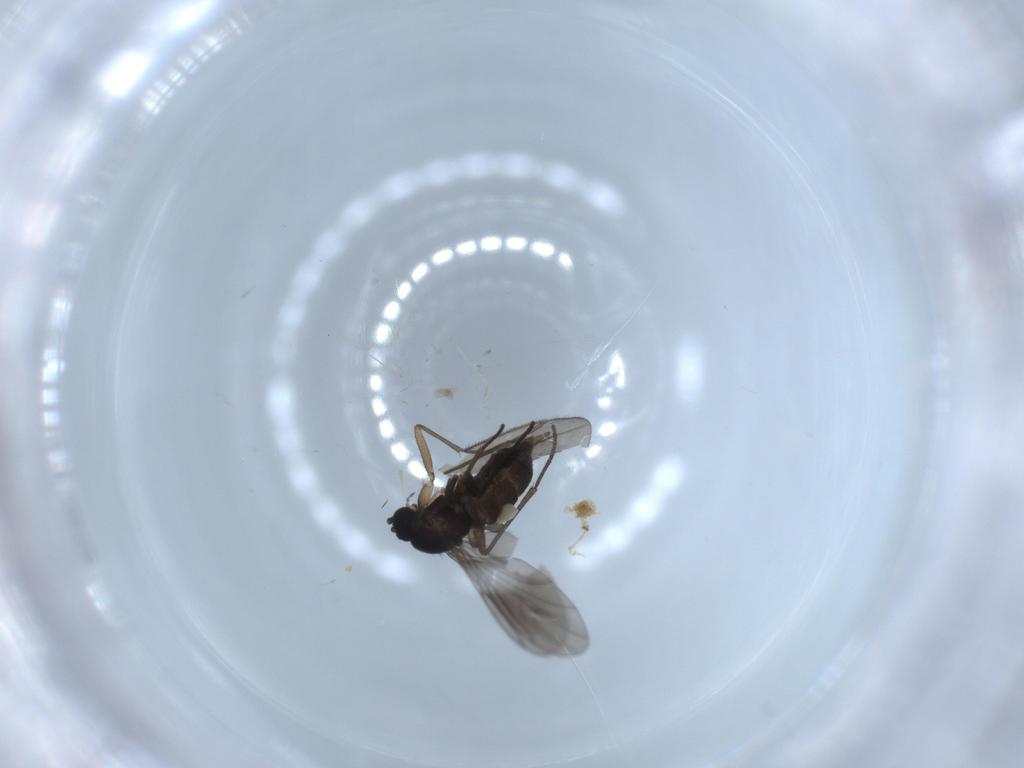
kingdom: Animalia
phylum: Arthropoda
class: Insecta
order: Diptera
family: Sciaridae
